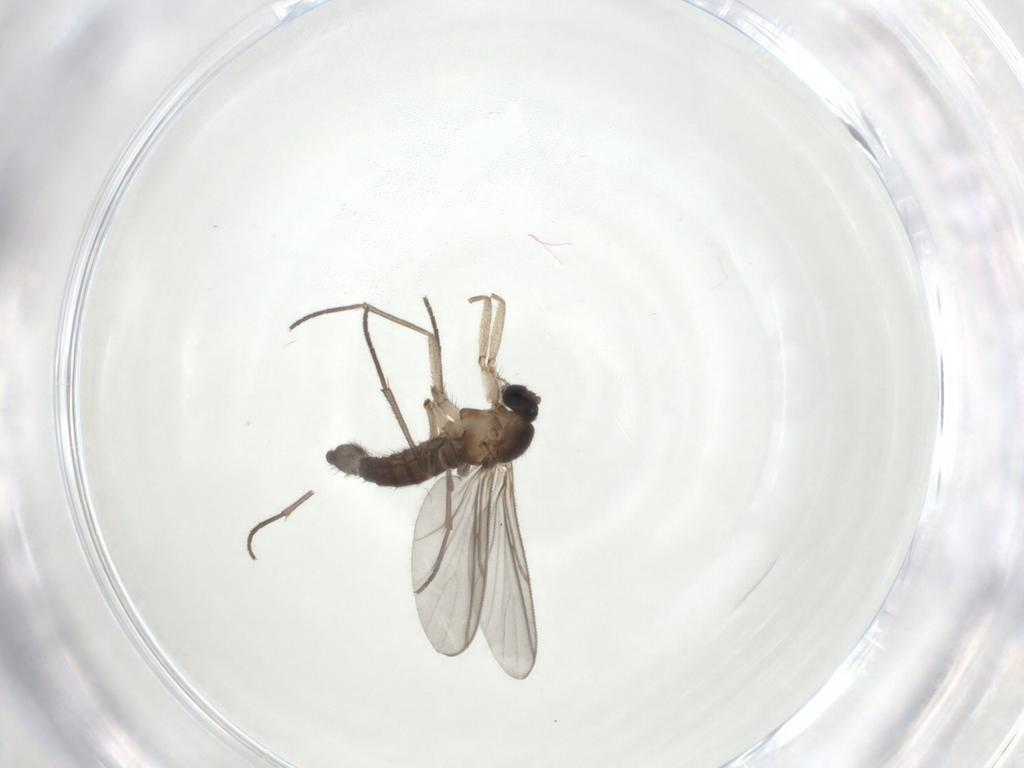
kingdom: Animalia
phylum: Arthropoda
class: Insecta
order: Diptera
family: Chironomidae
